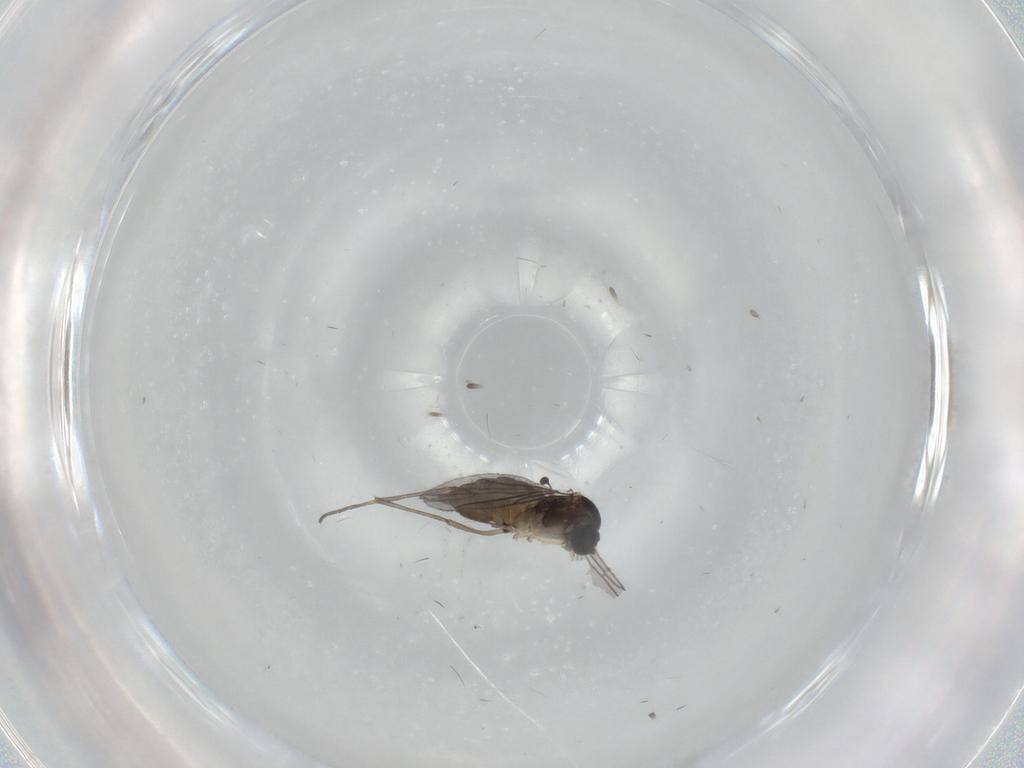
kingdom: Animalia
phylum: Arthropoda
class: Insecta
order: Diptera
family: Sciaridae
